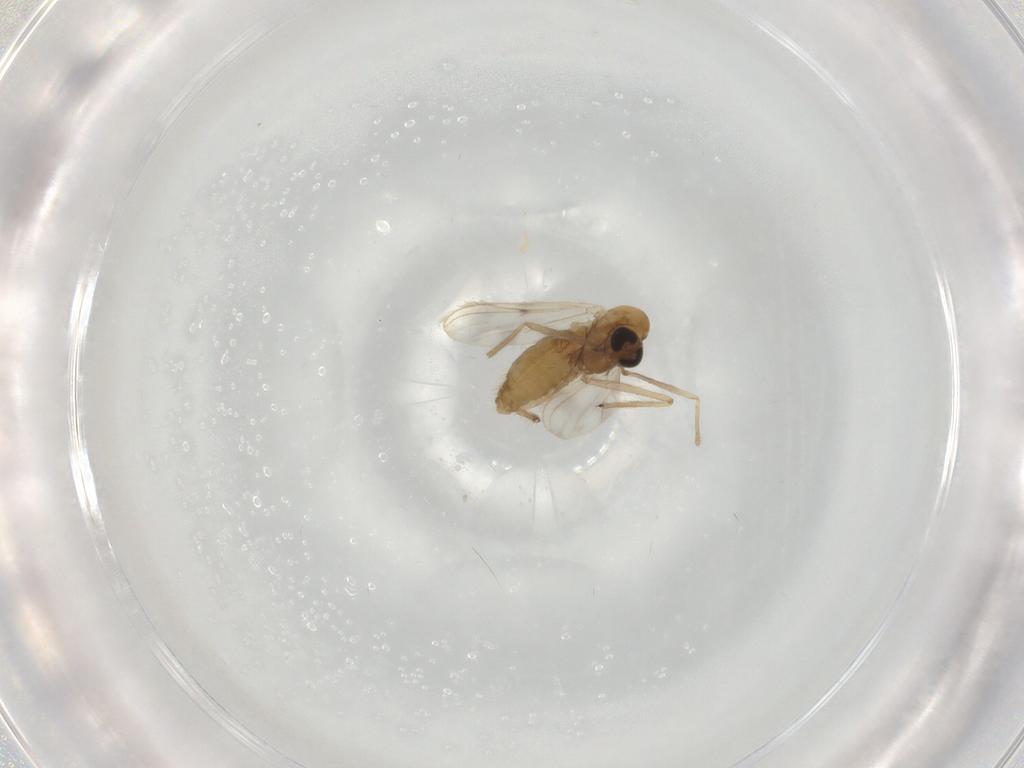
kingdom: Animalia
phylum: Arthropoda
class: Insecta
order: Diptera
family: Chironomidae
